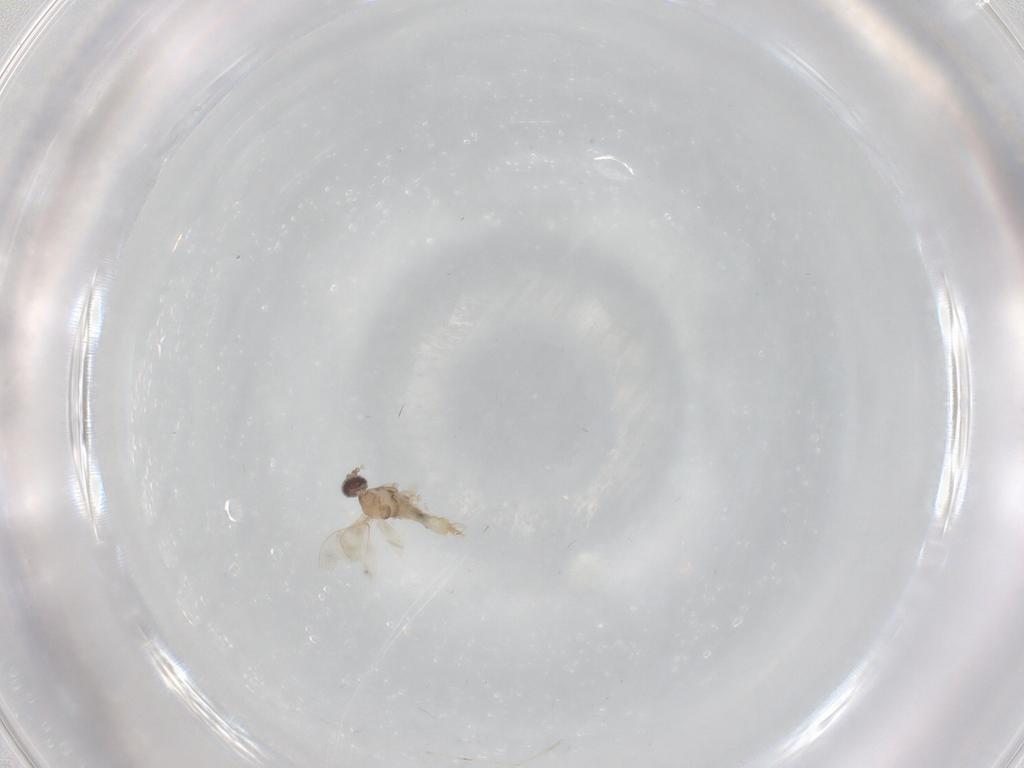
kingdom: Animalia
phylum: Arthropoda
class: Insecta
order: Diptera
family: Cecidomyiidae
